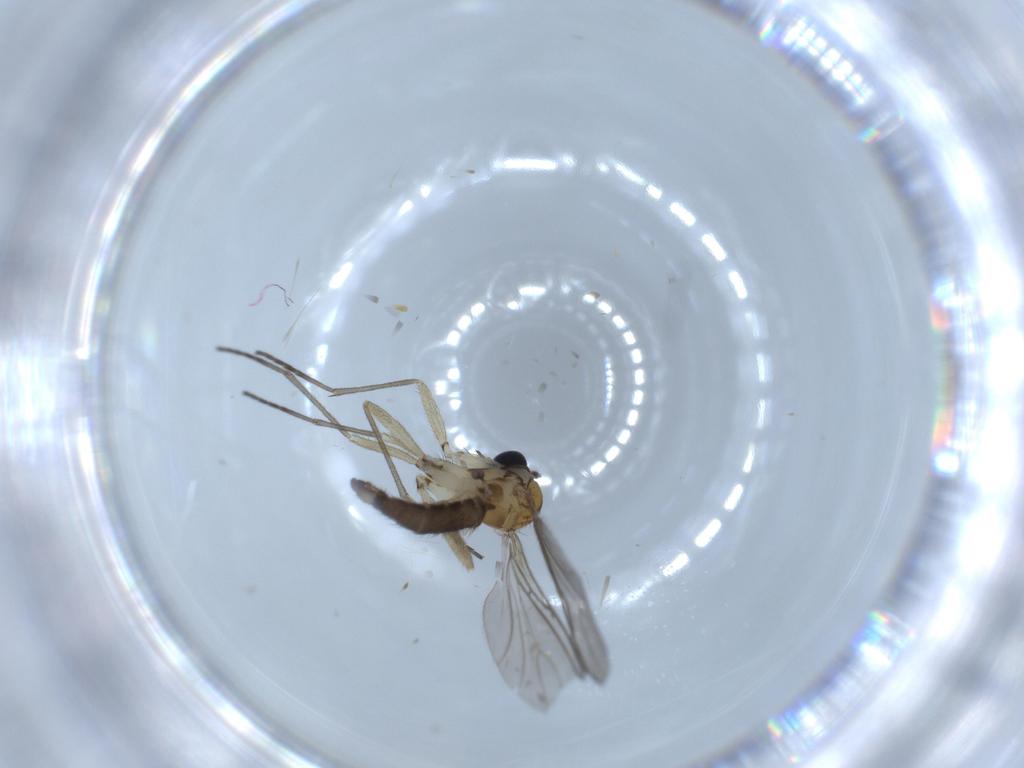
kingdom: Animalia
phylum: Arthropoda
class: Insecta
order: Diptera
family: Sciaridae
